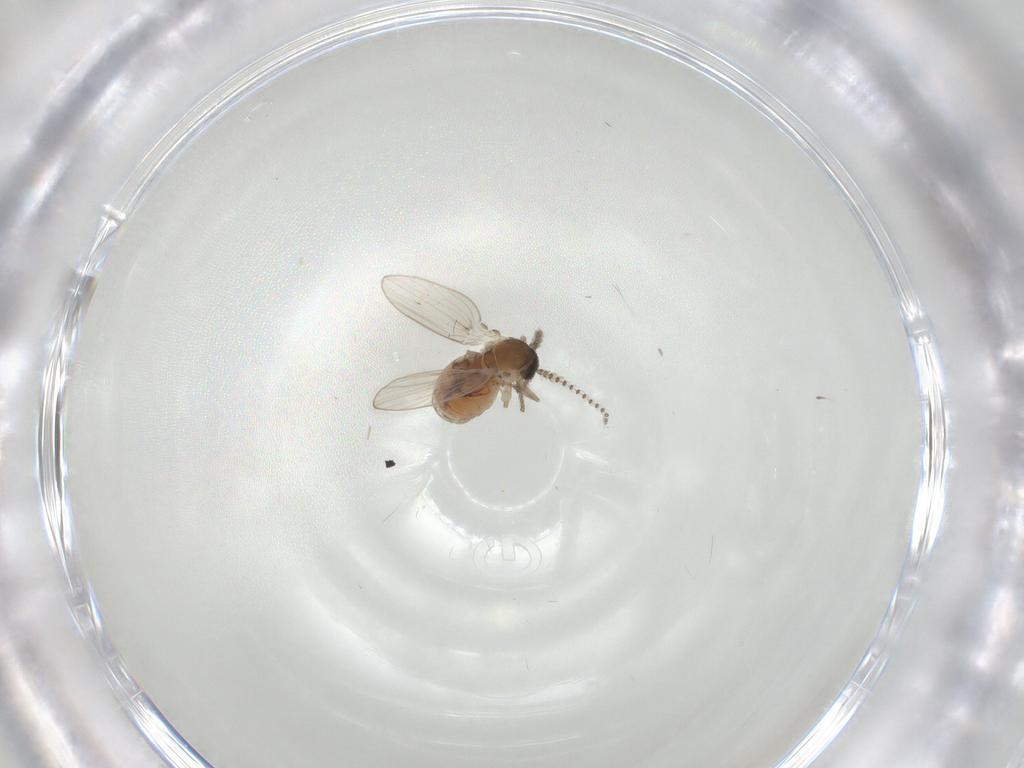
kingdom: Animalia
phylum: Arthropoda
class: Insecta
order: Diptera
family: Psychodidae
